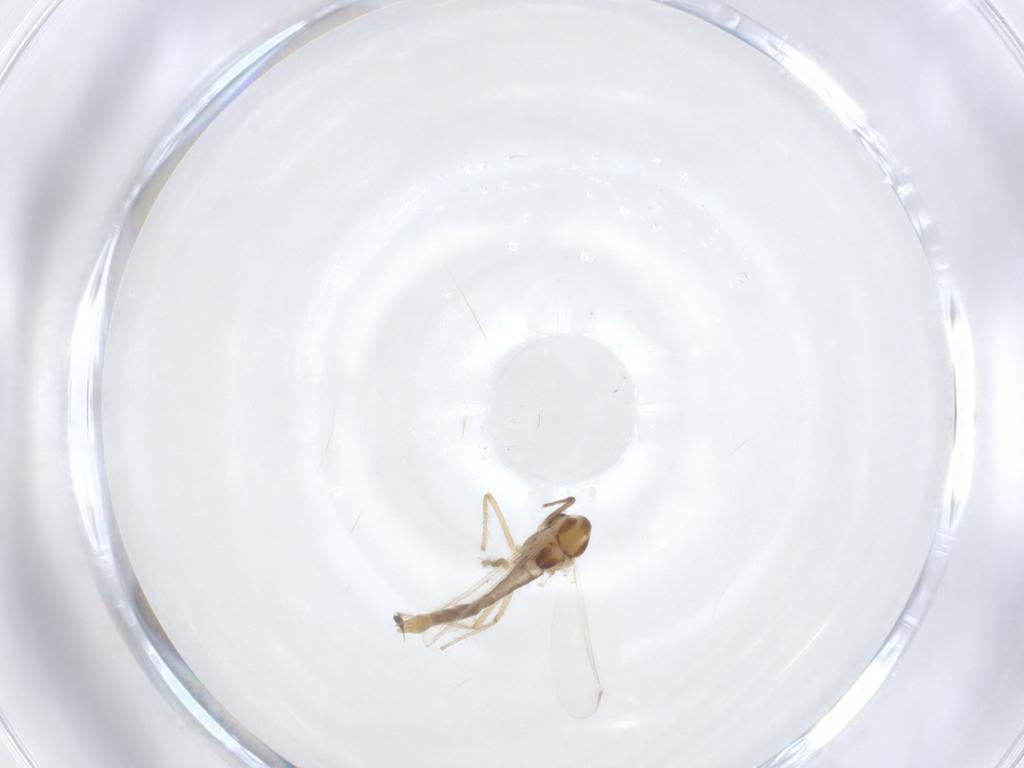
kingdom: Animalia
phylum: Arthropoda
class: Insecta
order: Diptera
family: Chironomidae
